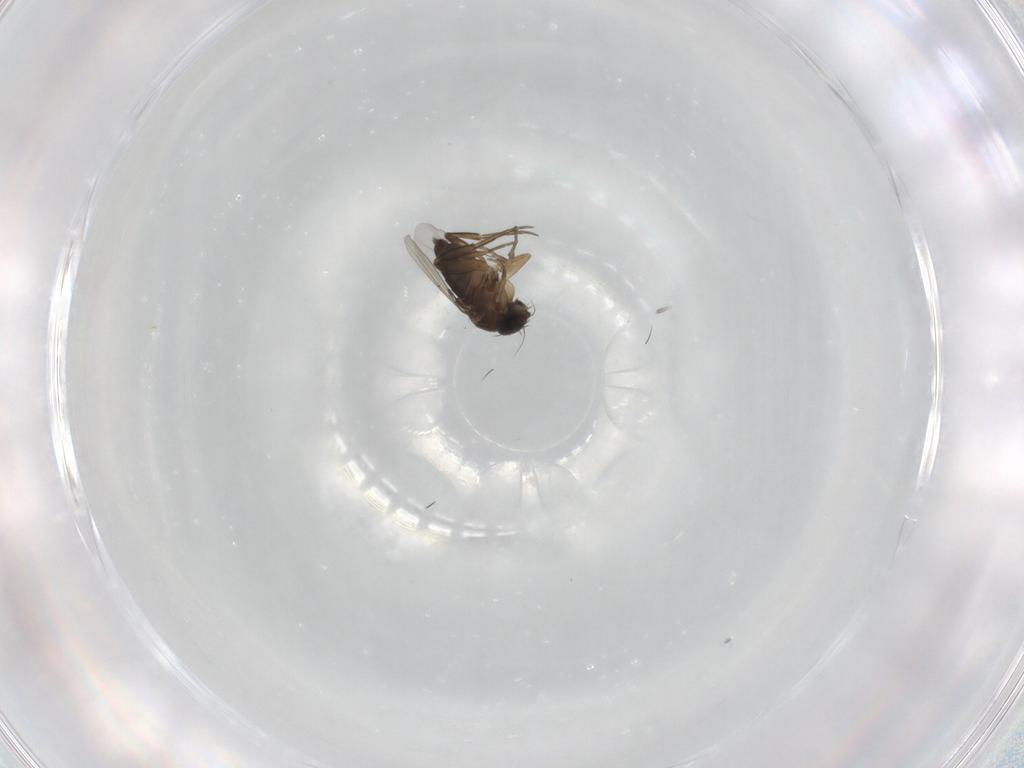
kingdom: Animalia
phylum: Arthropoda
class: Insecta
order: Diptera
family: Phoridae
